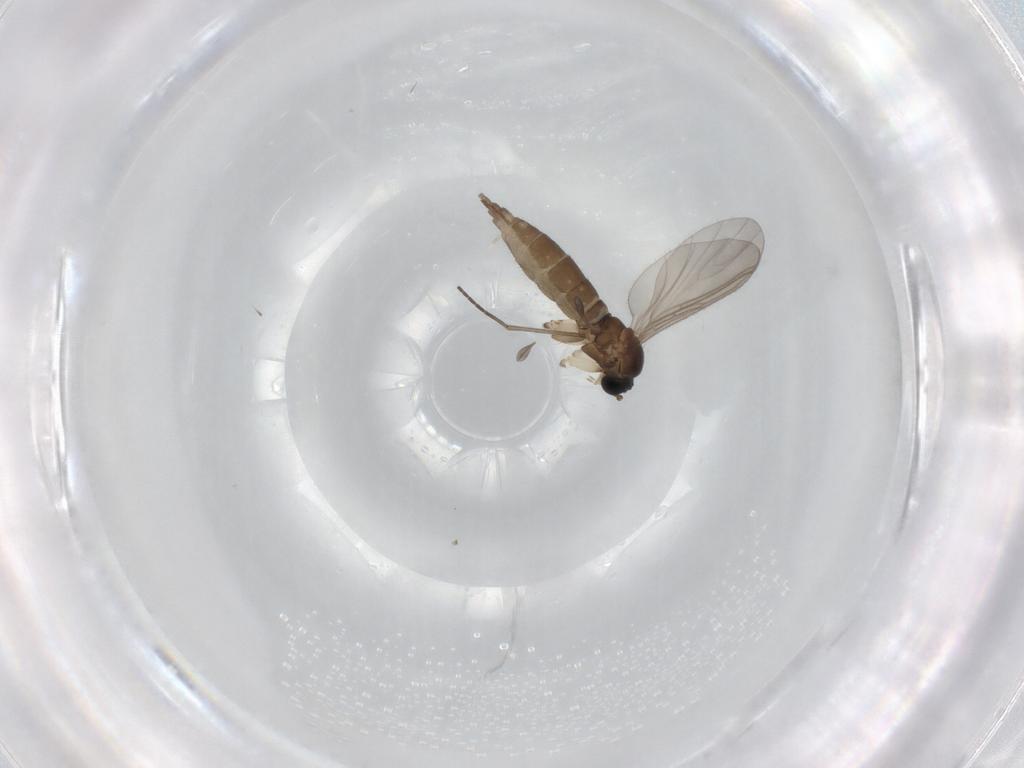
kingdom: Animalia
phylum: Arthropoda
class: Insecta
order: Diptera
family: Sciaridae
